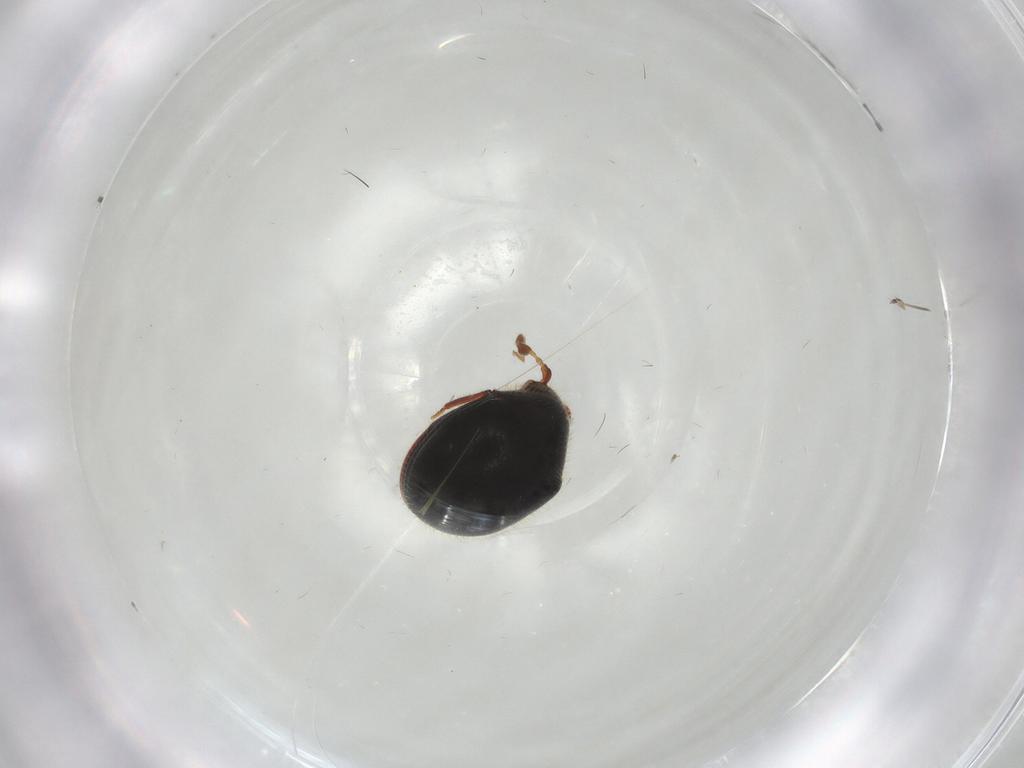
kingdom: Animalia
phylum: Arthropoda
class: Insecta
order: Coleoptera
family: Ptinidae
